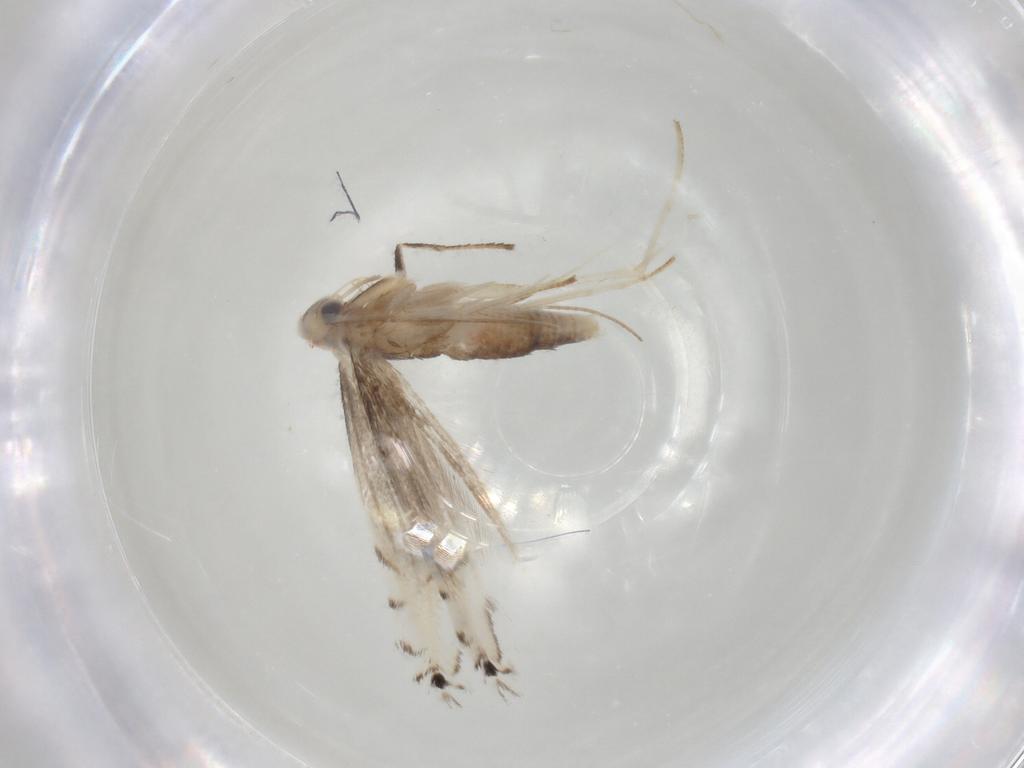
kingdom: Animalia
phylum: Arthropoda
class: Insecta
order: Lepidoptera
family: Gracillariidae
